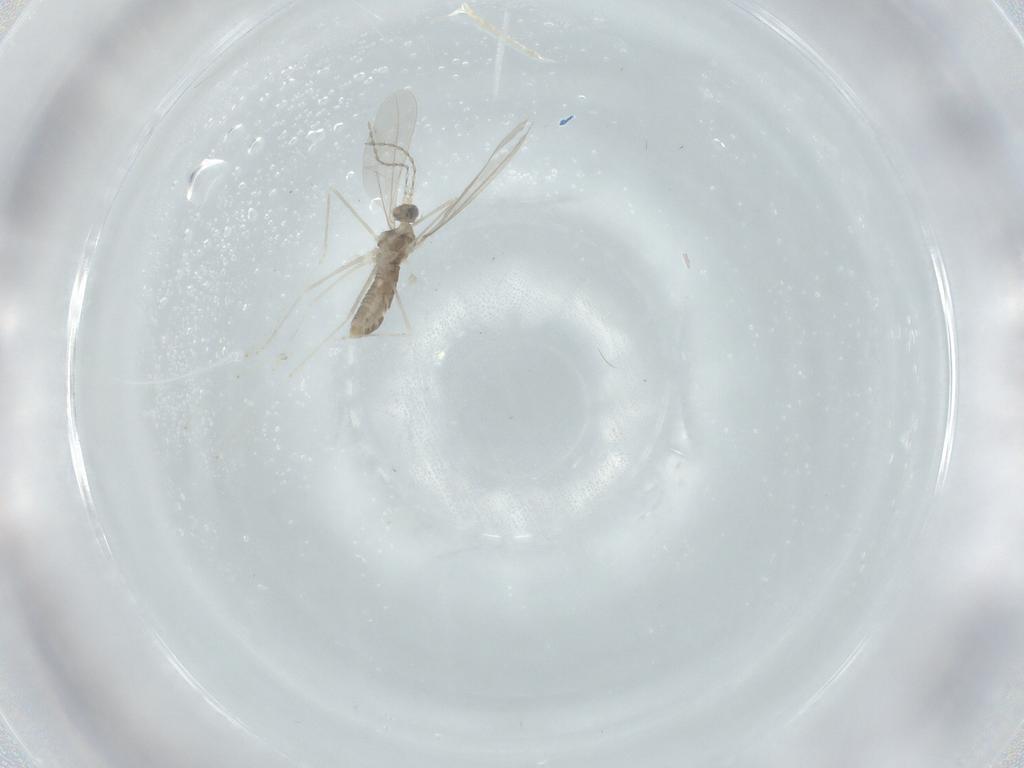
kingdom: Animalia
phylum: Arthropoda
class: Insecta
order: Diptera
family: Cecidomyiidae
